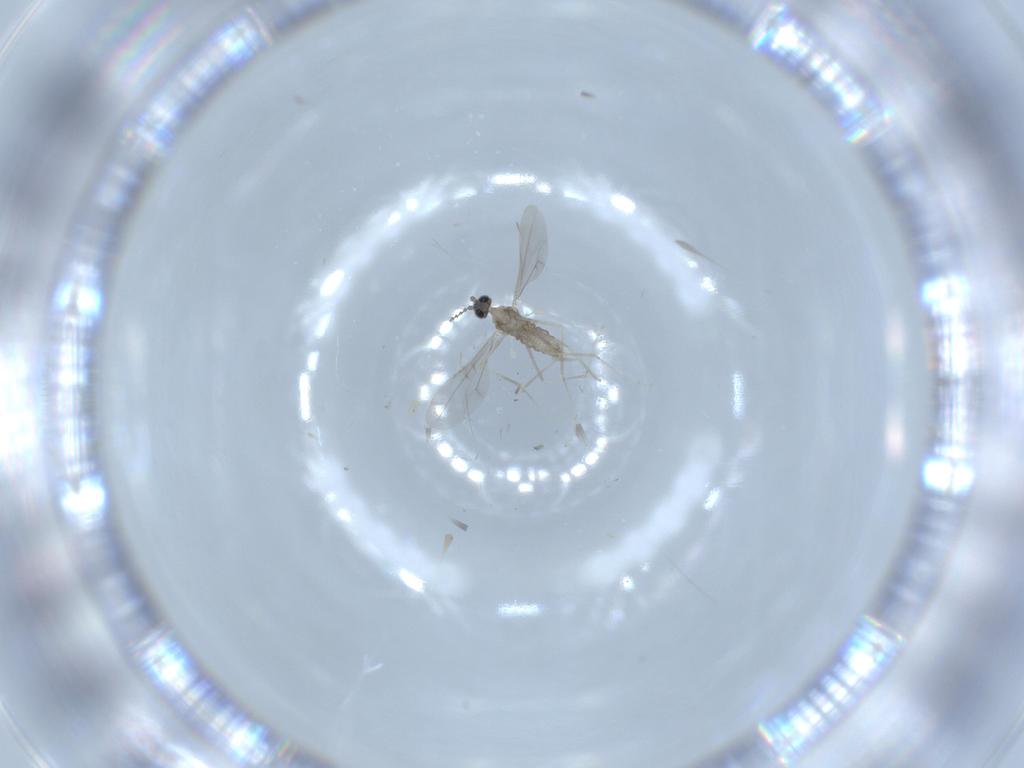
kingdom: Animalia
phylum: Arthropoda
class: Insecta
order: Diptera
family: Cecidomyiidae
